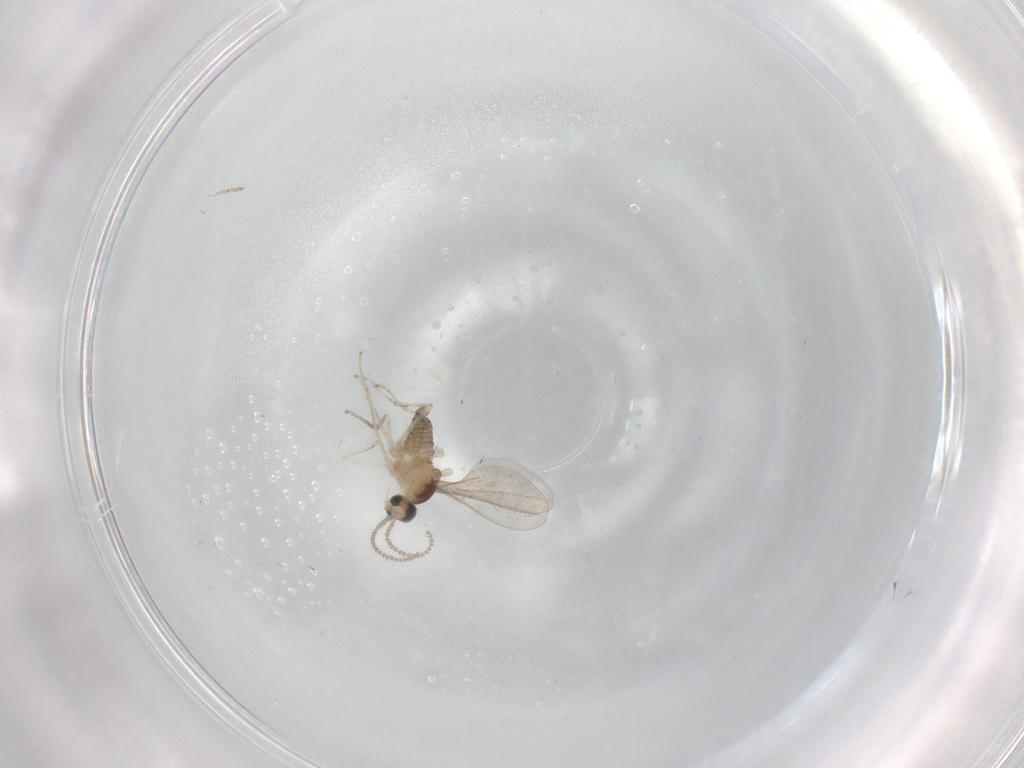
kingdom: Animalia
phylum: Arthropoda
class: Insecta
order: Diptera
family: Cecidomyiidae
